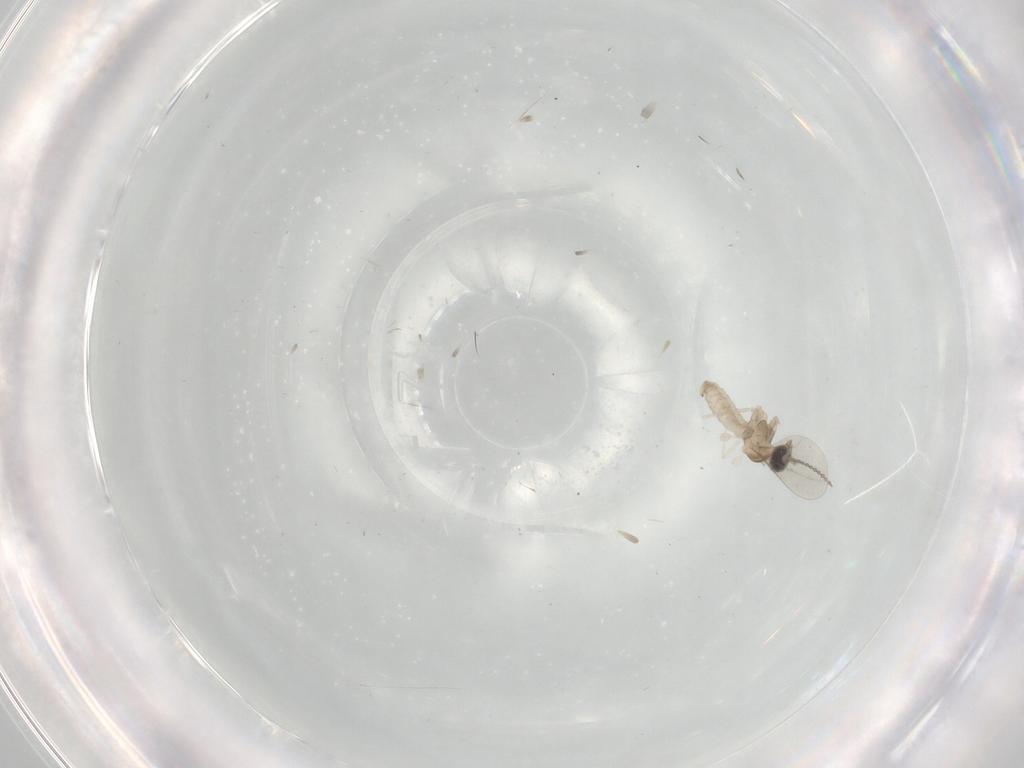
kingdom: Animalia
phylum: Arthropoda
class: Insecta
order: Diptera
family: Cecidomyiidae
